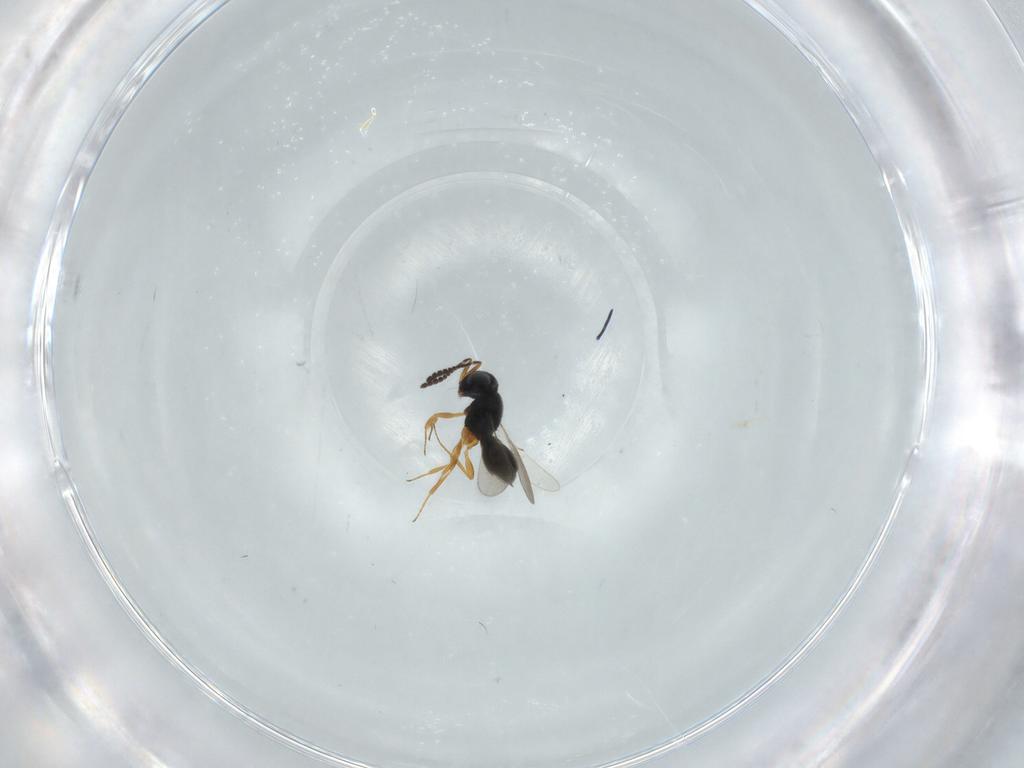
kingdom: Animalia
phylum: Arthropoda
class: Insecta
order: Hymenoptera
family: Scelionidae
